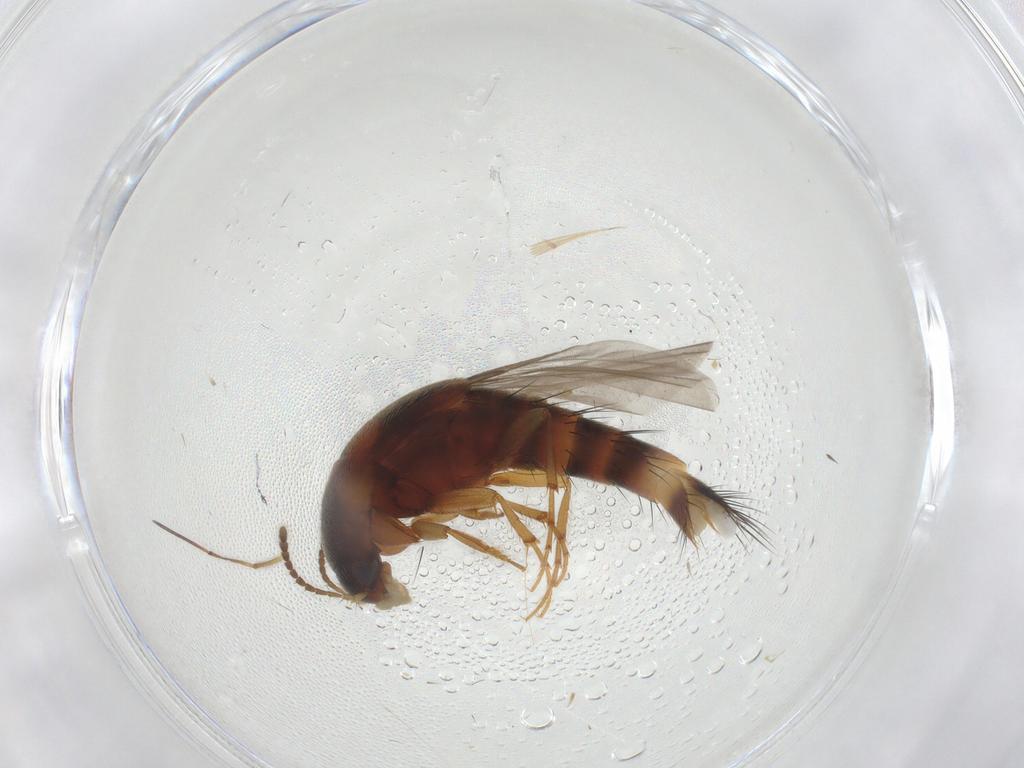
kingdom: Animalia
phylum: Arthropoda
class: Insecta
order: Coleoptera
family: Staphylinidae
